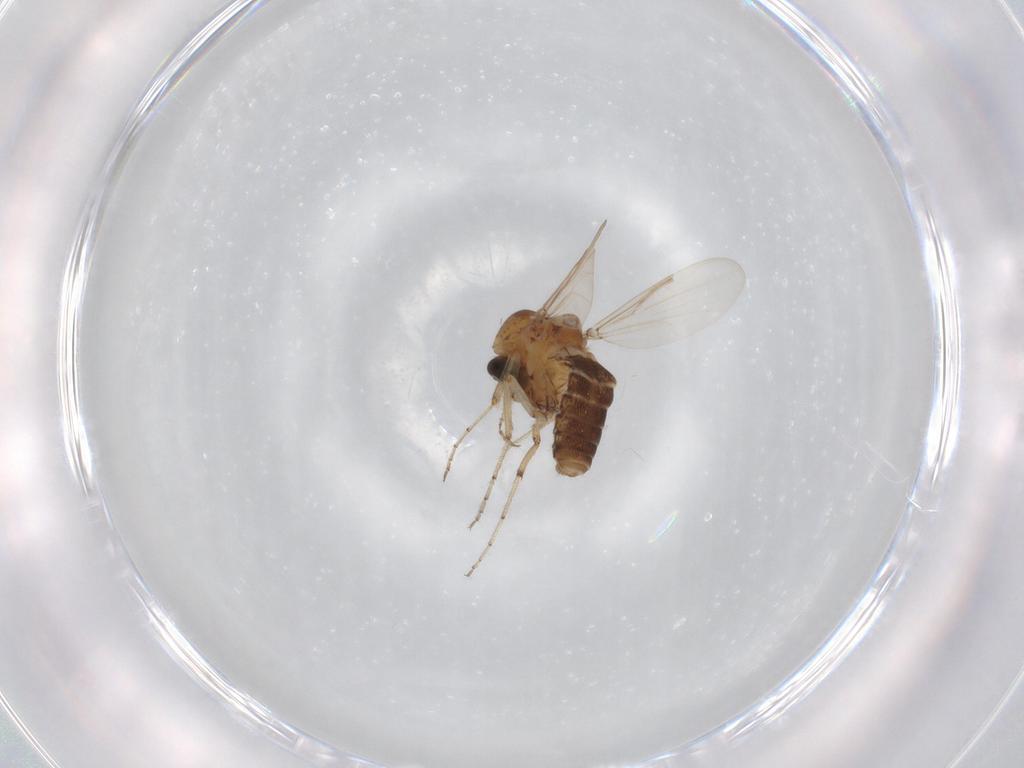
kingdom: Animalia
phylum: Arthropoda
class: Insecta
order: Diptera
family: Ceratopogonidae
